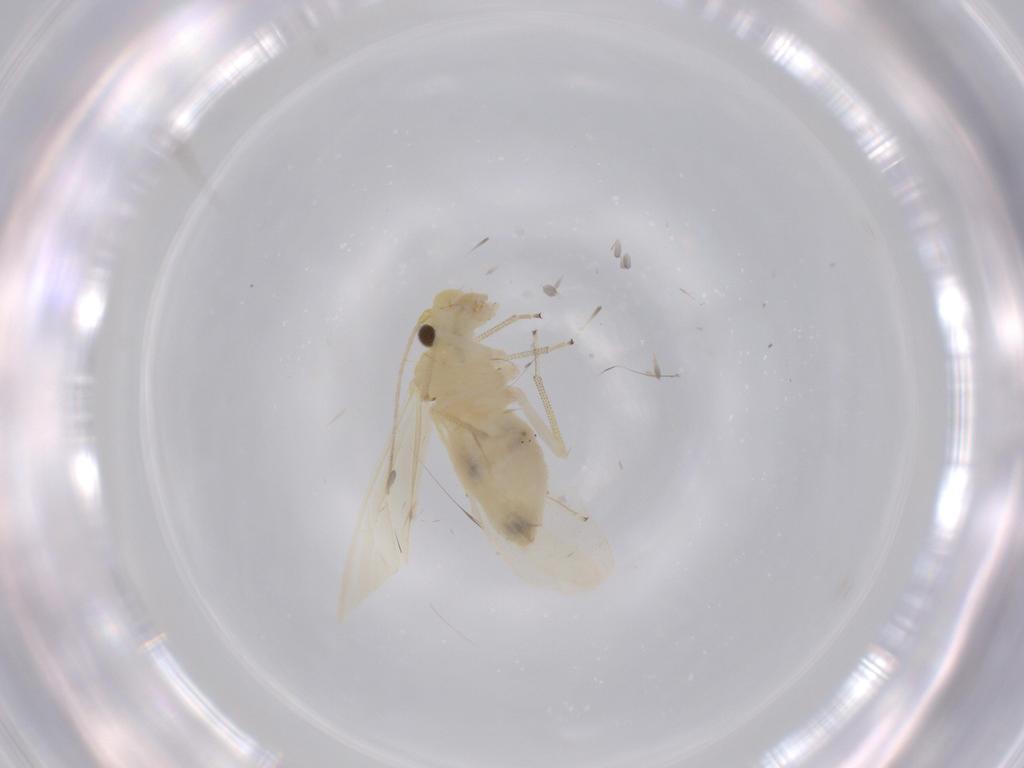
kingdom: Animalia
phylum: Arthropoda
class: Insecta
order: Psocodea
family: Caeciliusidae
